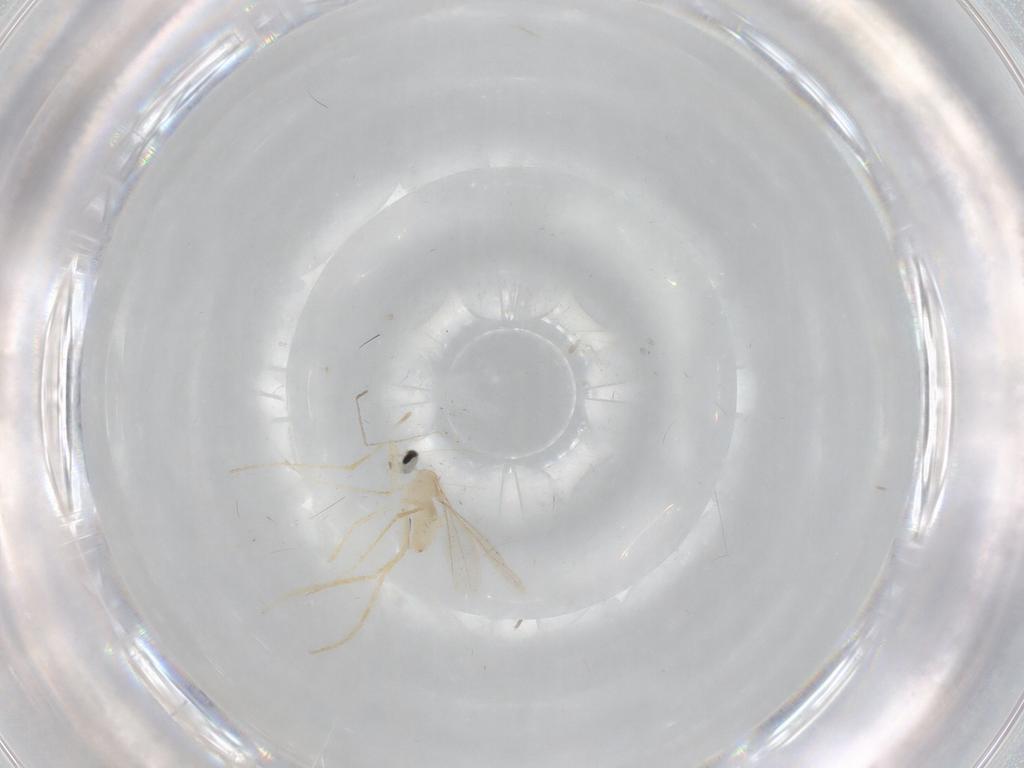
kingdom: Animalia
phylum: Arthropoda
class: Insecta
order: Diptera
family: Cecidomyiidae
